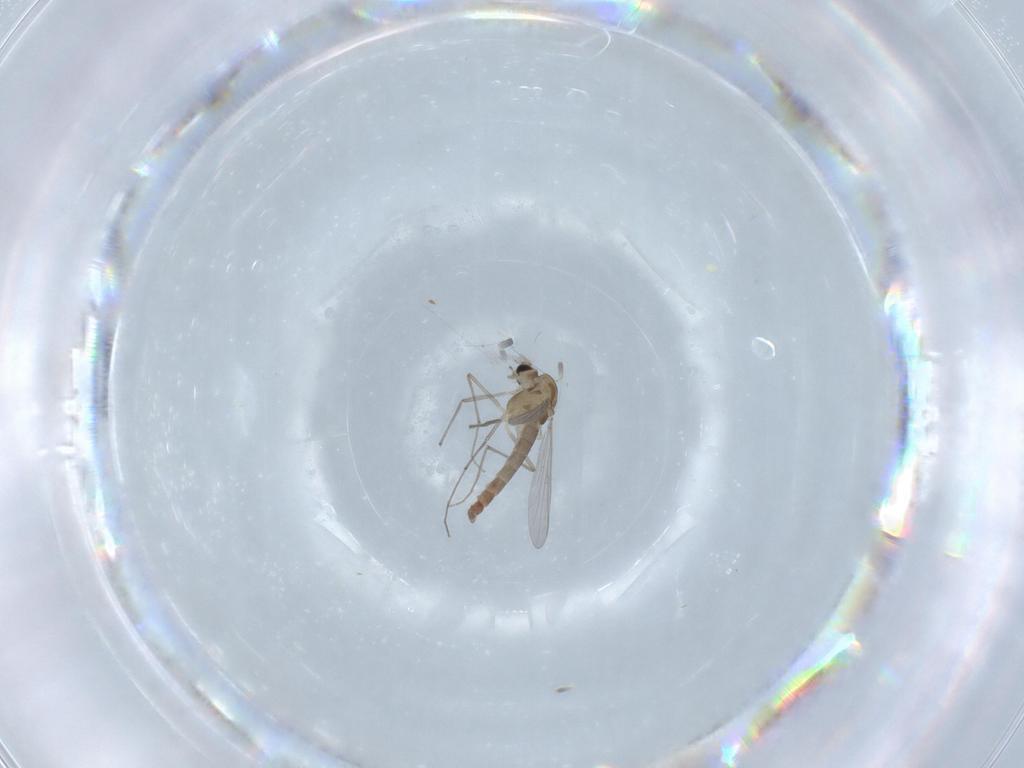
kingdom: Animalia
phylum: Arthropoda
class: Insecta
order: Diptera
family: Chironomidae
